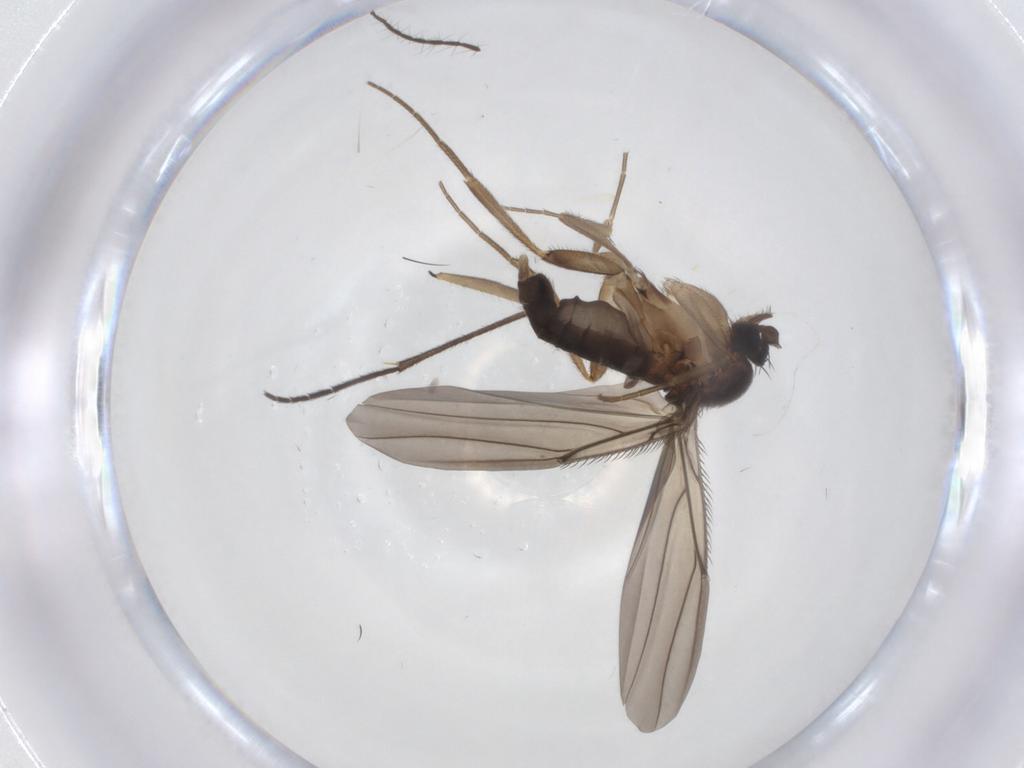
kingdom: Animalia
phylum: Arthropoda
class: Insecta
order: Diptera
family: Phoridae
